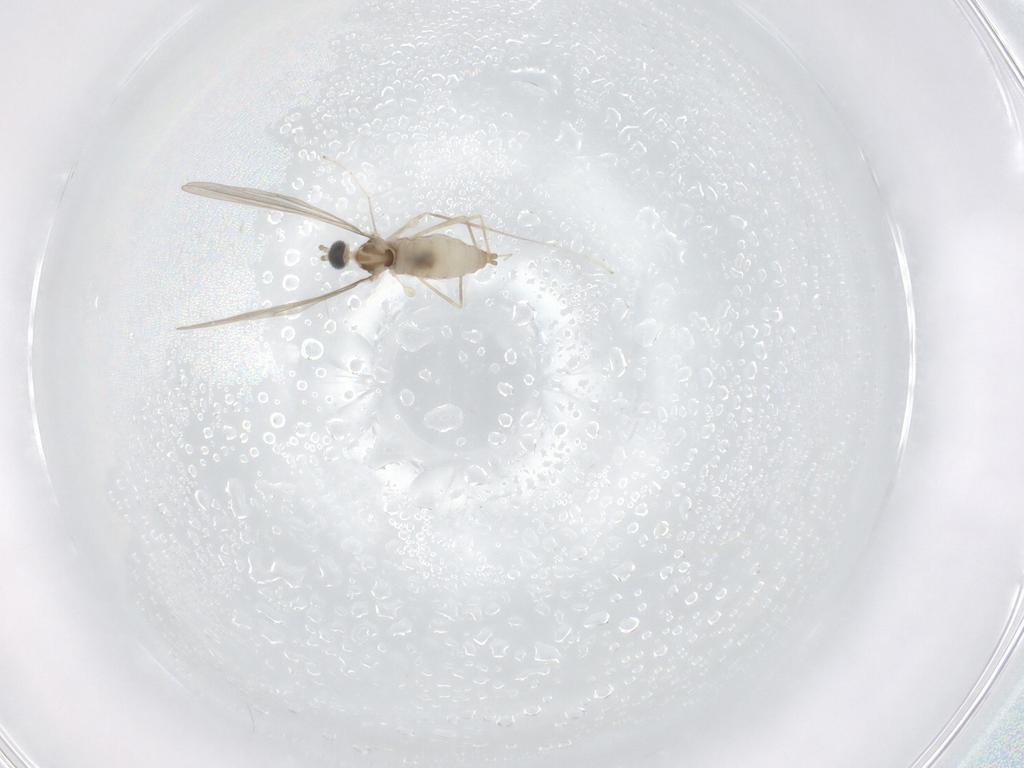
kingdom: Animalia
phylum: Arthropoda
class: Insecta
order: Diptera
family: Cecidomyiidae
